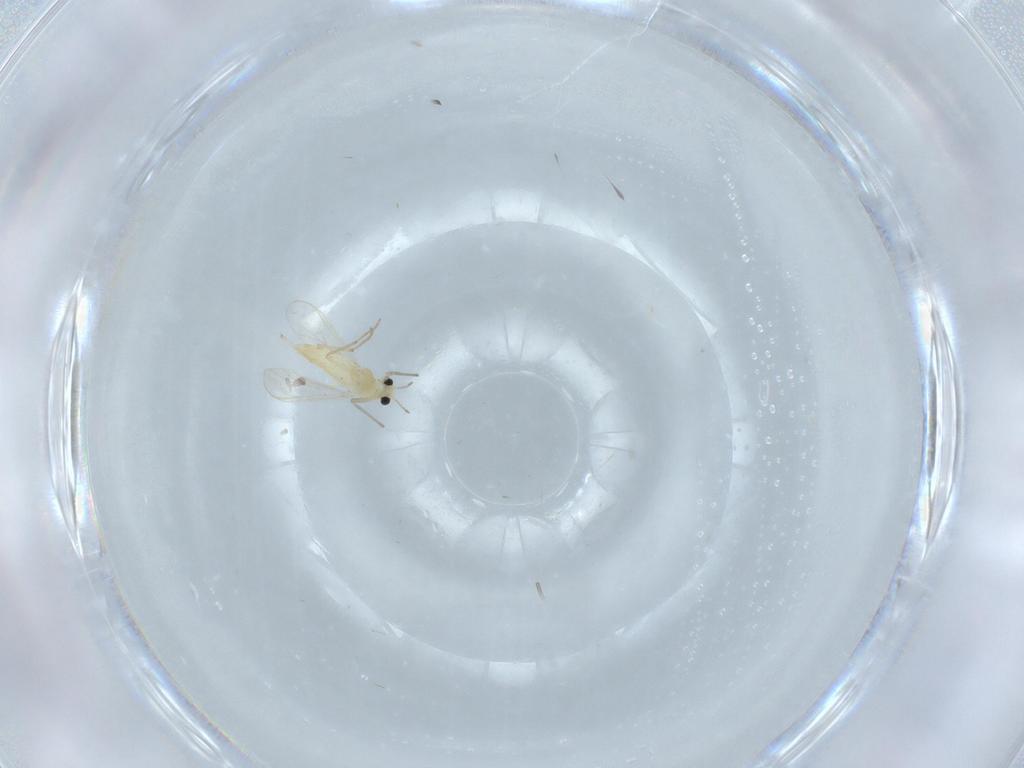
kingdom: Animalia
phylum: Arthropoda
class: Insecta
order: Diptera
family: Chironomidae
